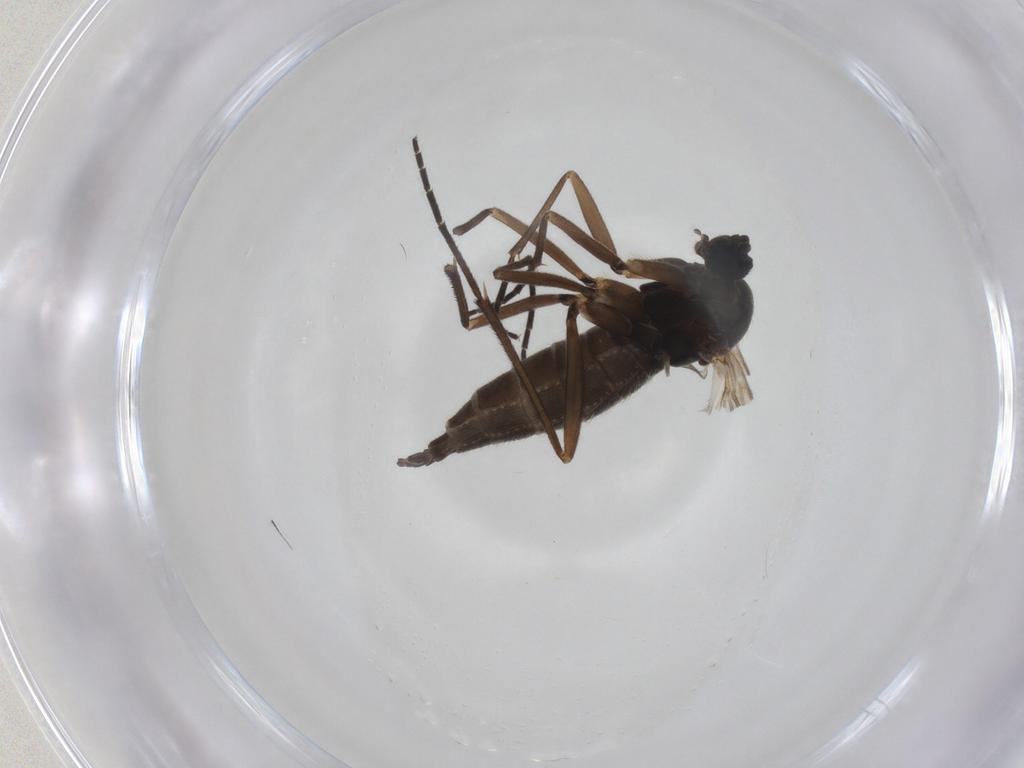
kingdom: Animalia
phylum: Arthropoda
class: Insecta
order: Diptera
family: Sciaridae
